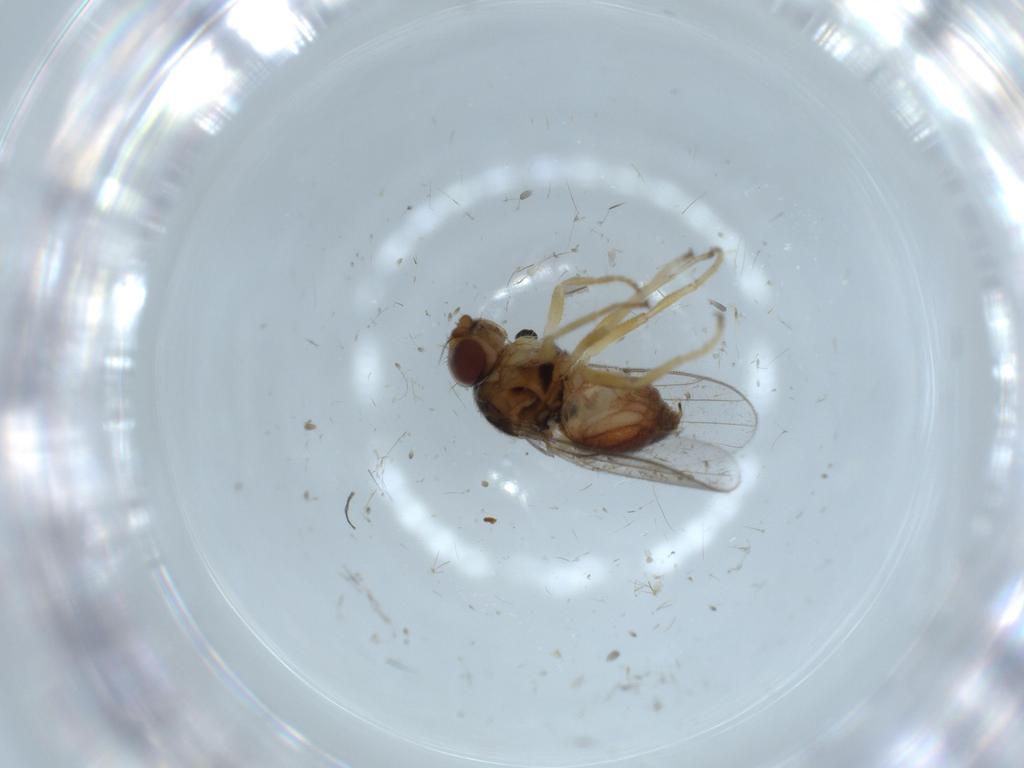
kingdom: Animalia
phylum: Arthropoda
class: Insecta
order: Diptera
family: Chloropidae
